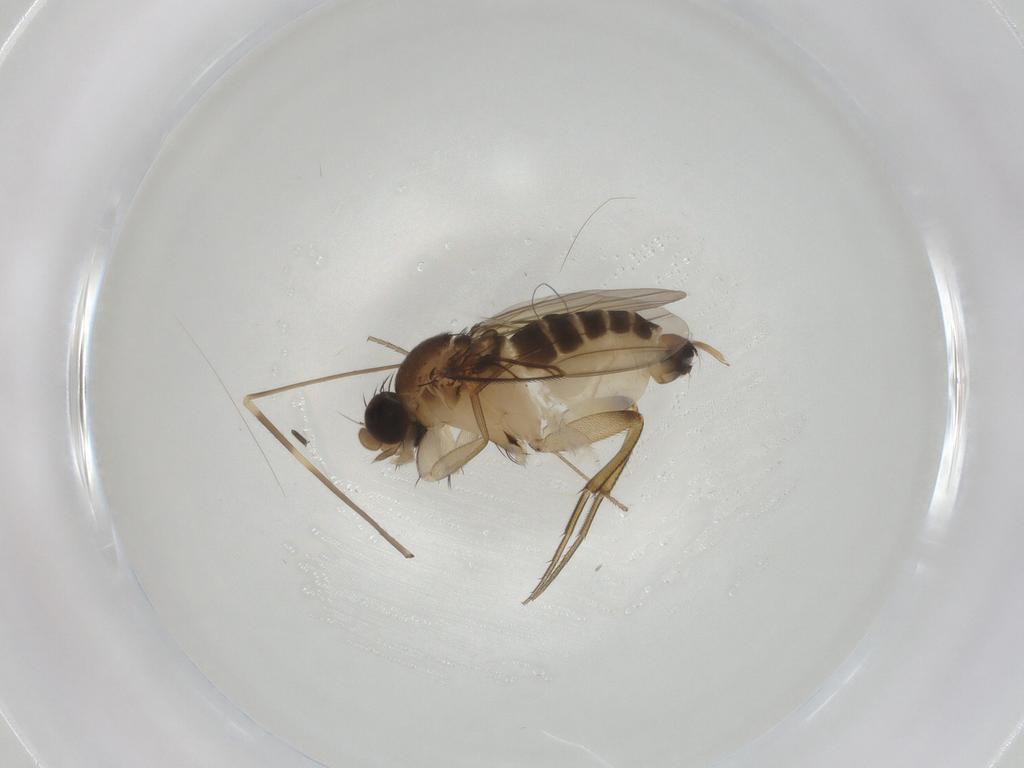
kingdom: Animalia
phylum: Arthropoda
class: Insecta
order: Diptera
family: Phoridae
